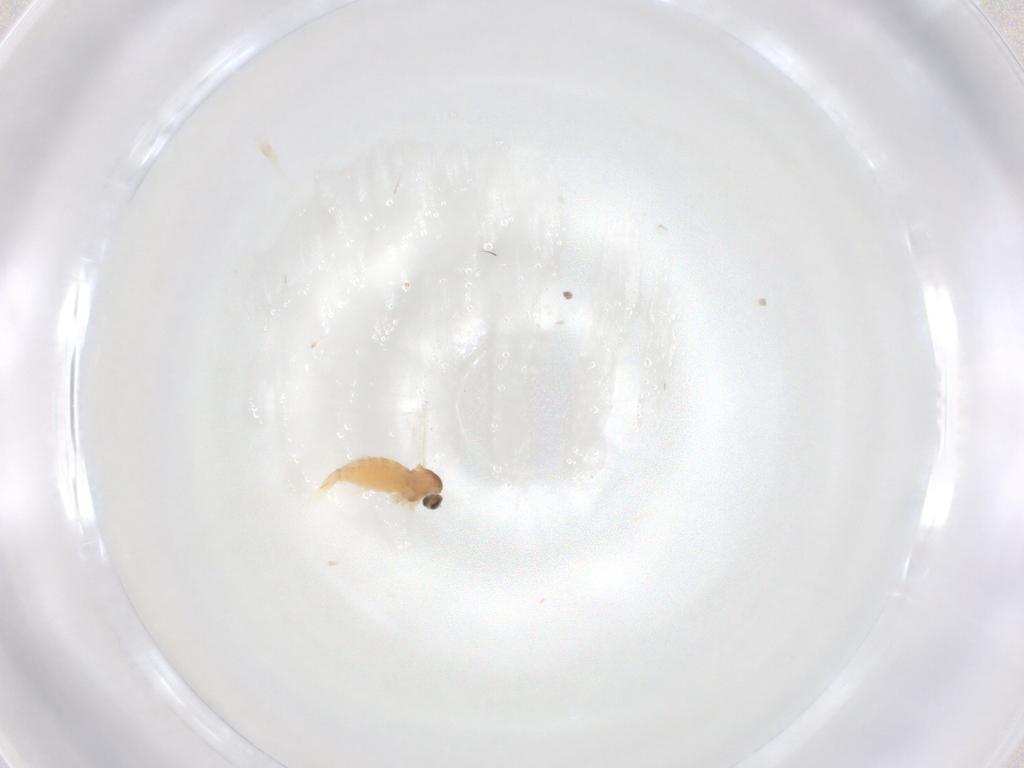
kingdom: Animalia
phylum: Arthropoda
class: Insecta
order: Diptera
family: Cecidomyiidae
